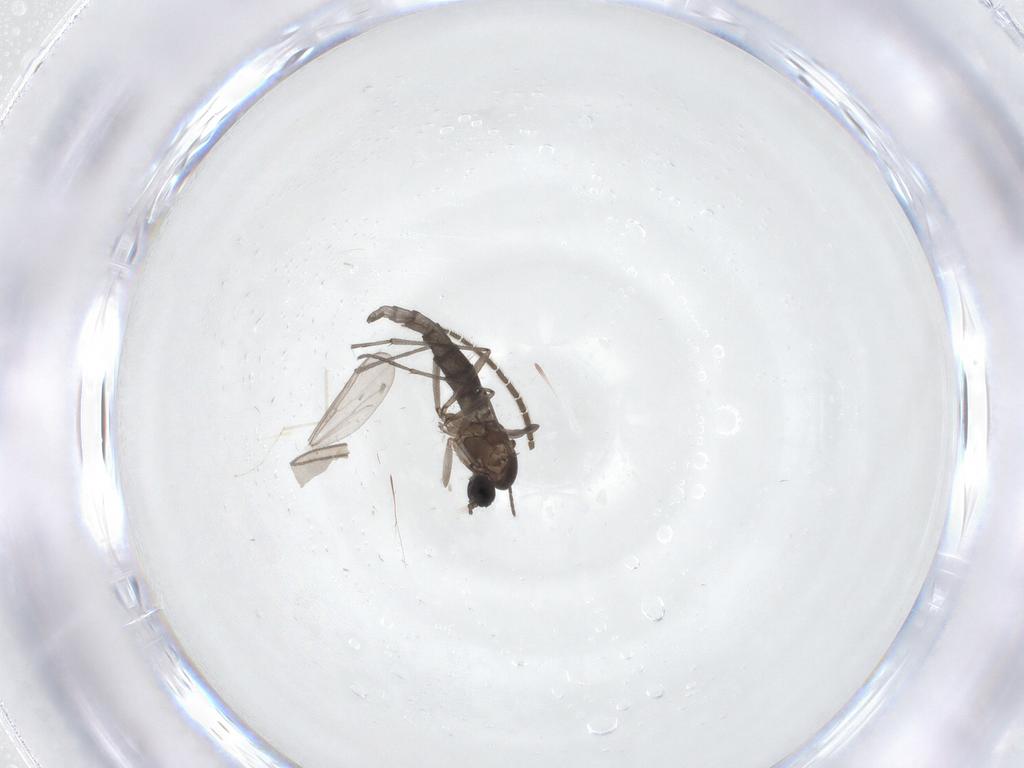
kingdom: Animalia
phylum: Arthropoda
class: Insecta
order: Diptera
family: Sciaridae
